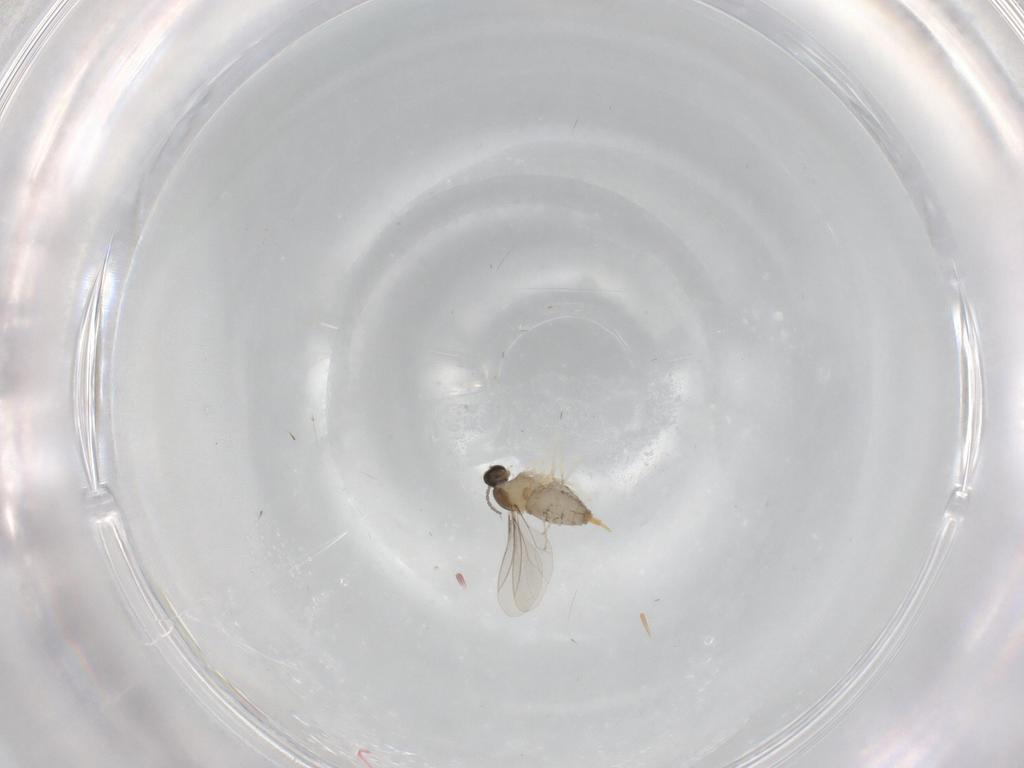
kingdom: Animalia
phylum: Arthropoda
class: Insecta
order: Diptera
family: Cecidomyiidae
